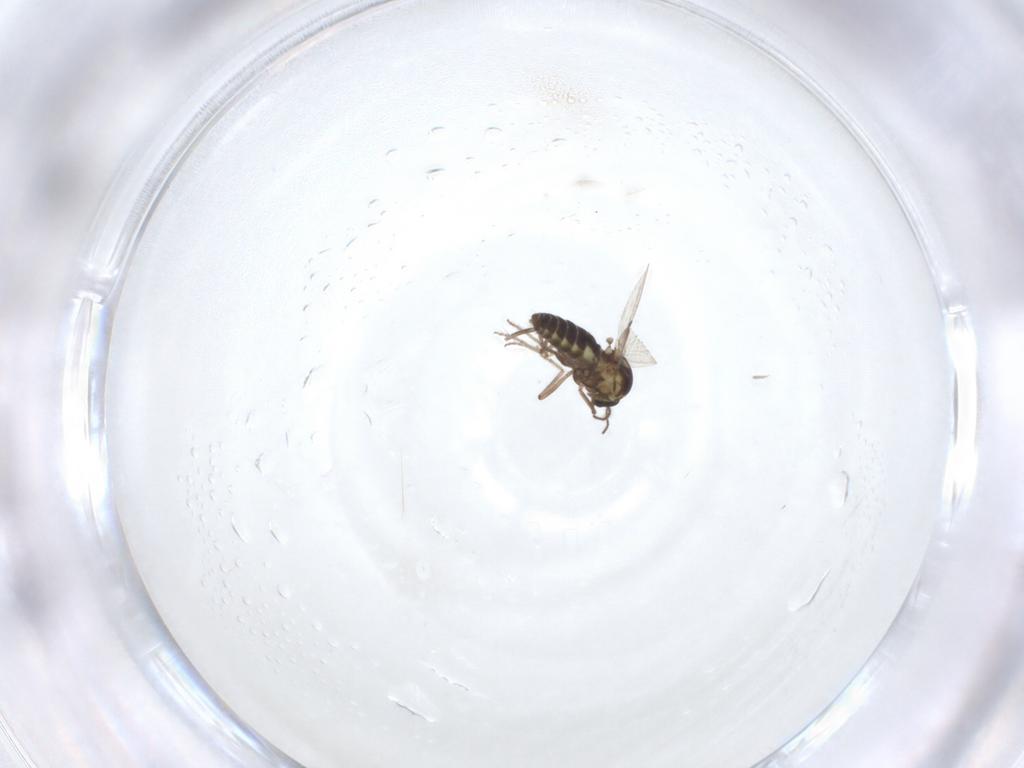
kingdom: Animalia
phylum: Arthropoda
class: Insecta
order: Diptera
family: Ceratopogonidae
